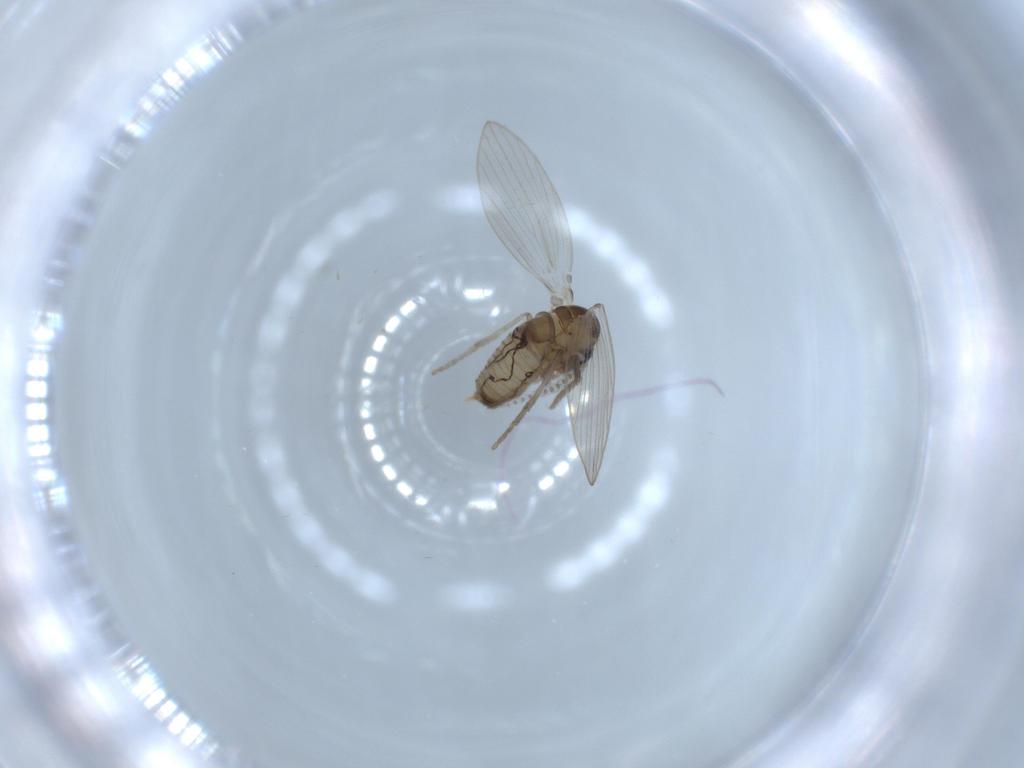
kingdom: Animalia
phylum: Arthropoda
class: Insecta
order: Diptera
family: Psychodidae
